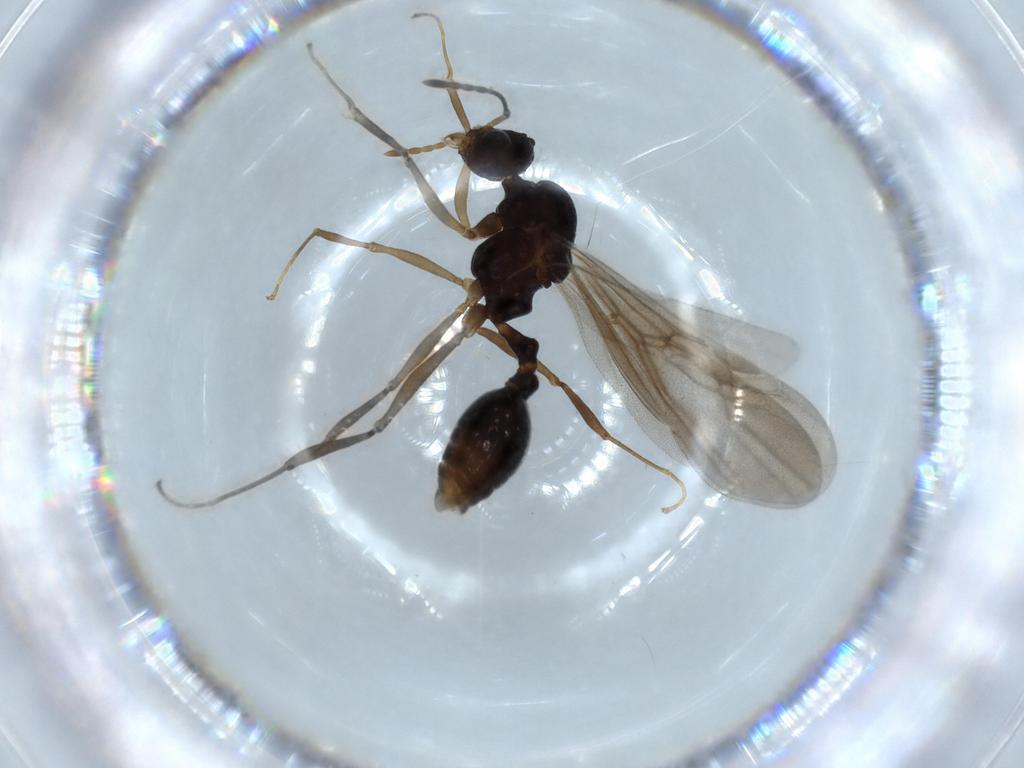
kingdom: Animalia
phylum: Arthropoda
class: Insecta
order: Hymenoptera
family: Formicidae
